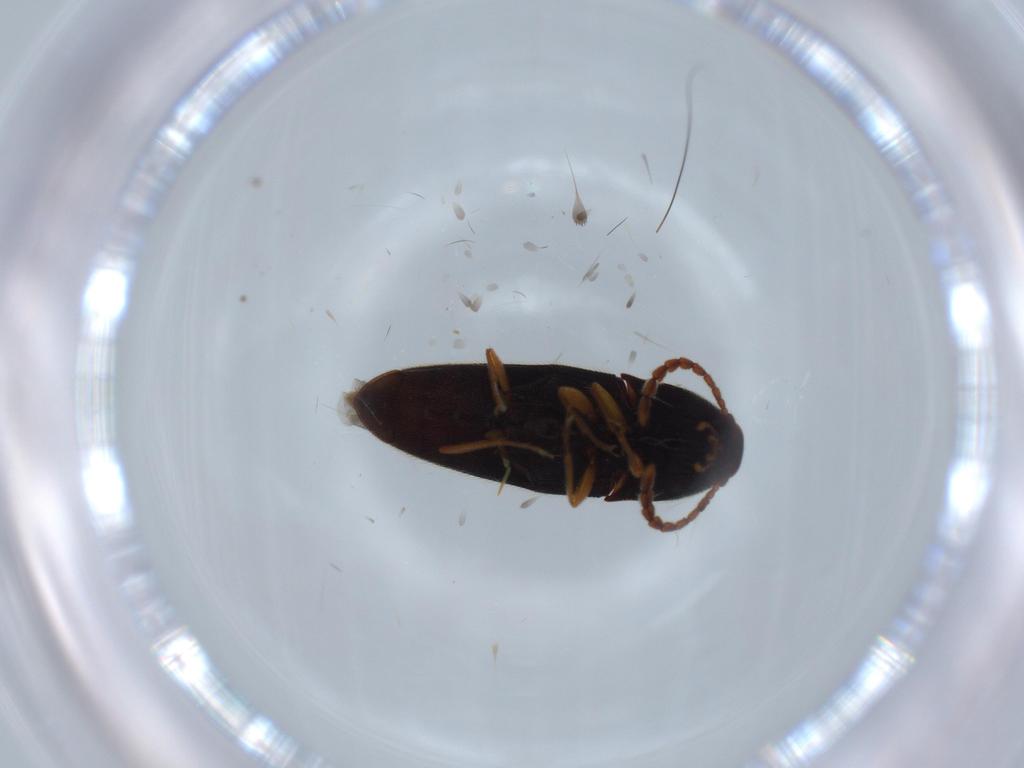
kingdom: Animalia
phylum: Arthropoda
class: Insecta
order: Coleoptera
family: Elateridae
